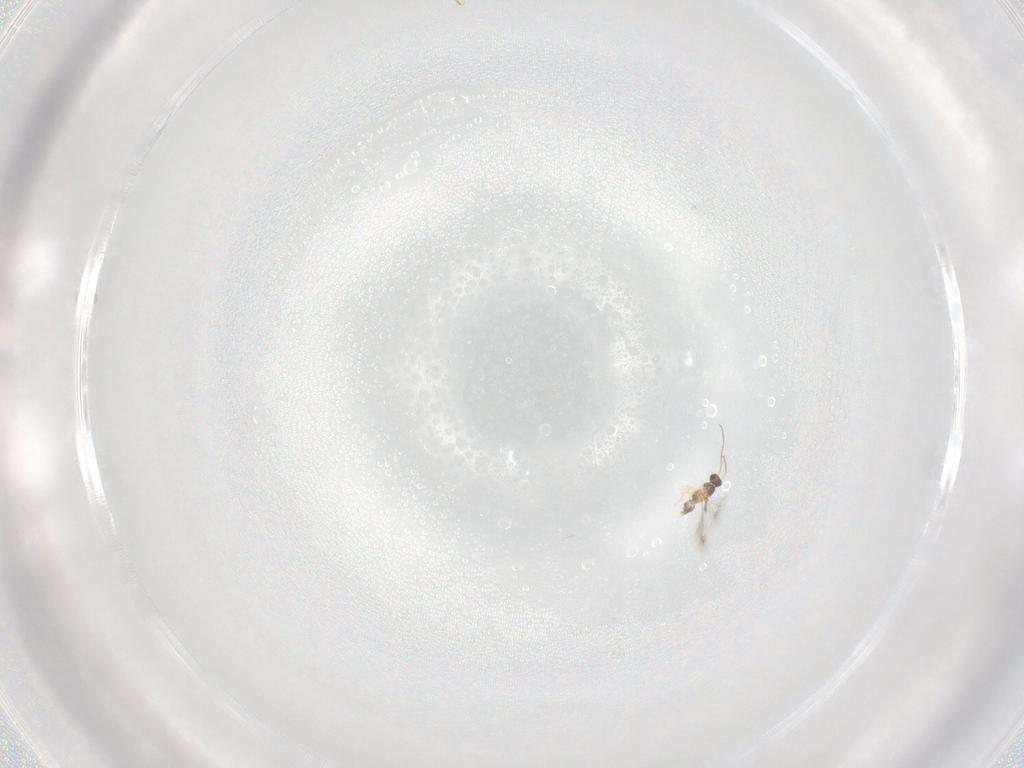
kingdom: Animalia
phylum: Arthropoda
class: Insecta
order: Hymenoptera
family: Mymaridae
